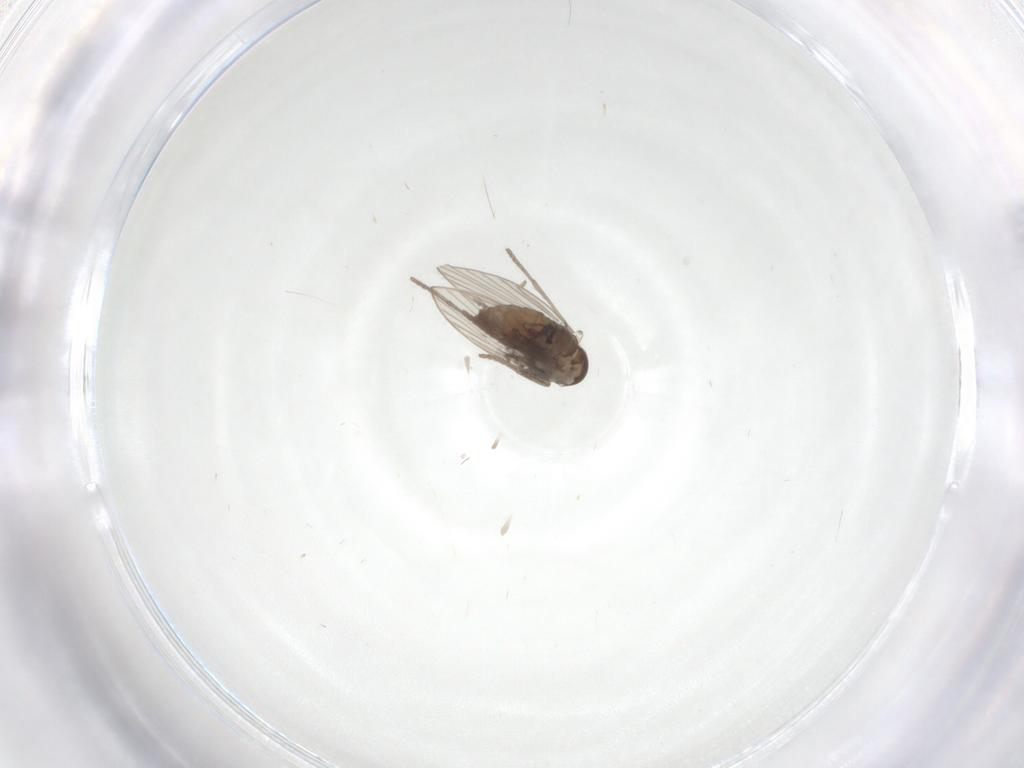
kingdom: Animalia
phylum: Arthropoda
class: Insecta
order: Diptera
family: Psychodidae
